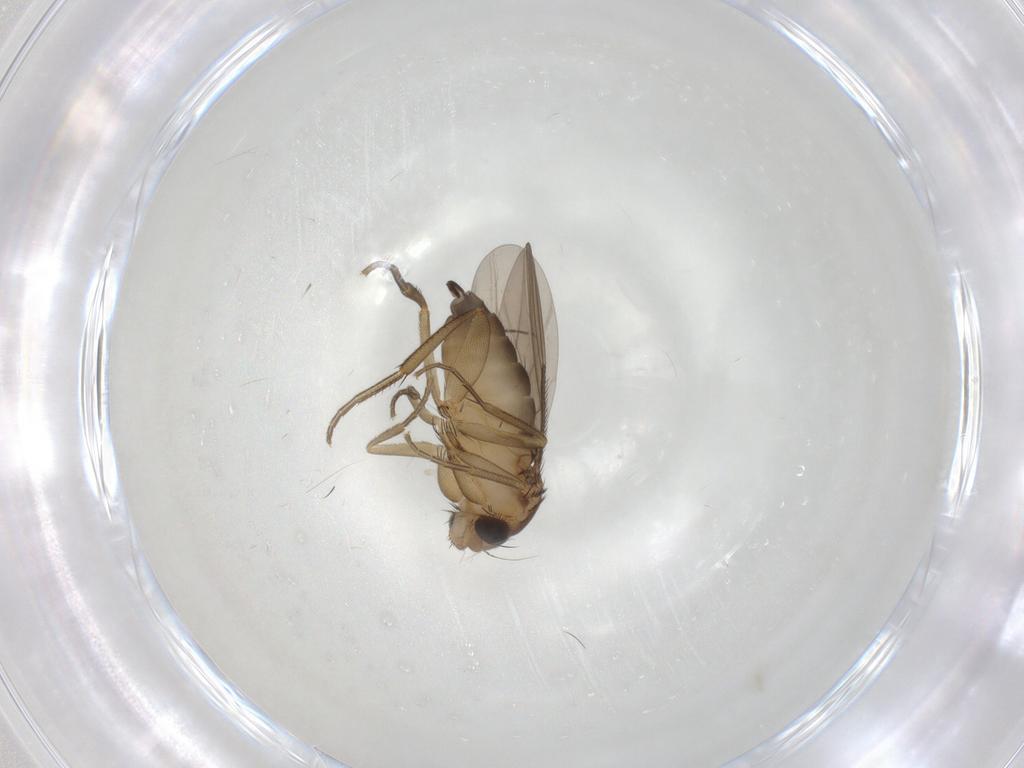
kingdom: Animalia
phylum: Arthropoda
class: Insecta
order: Diptera
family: Chironomidae
